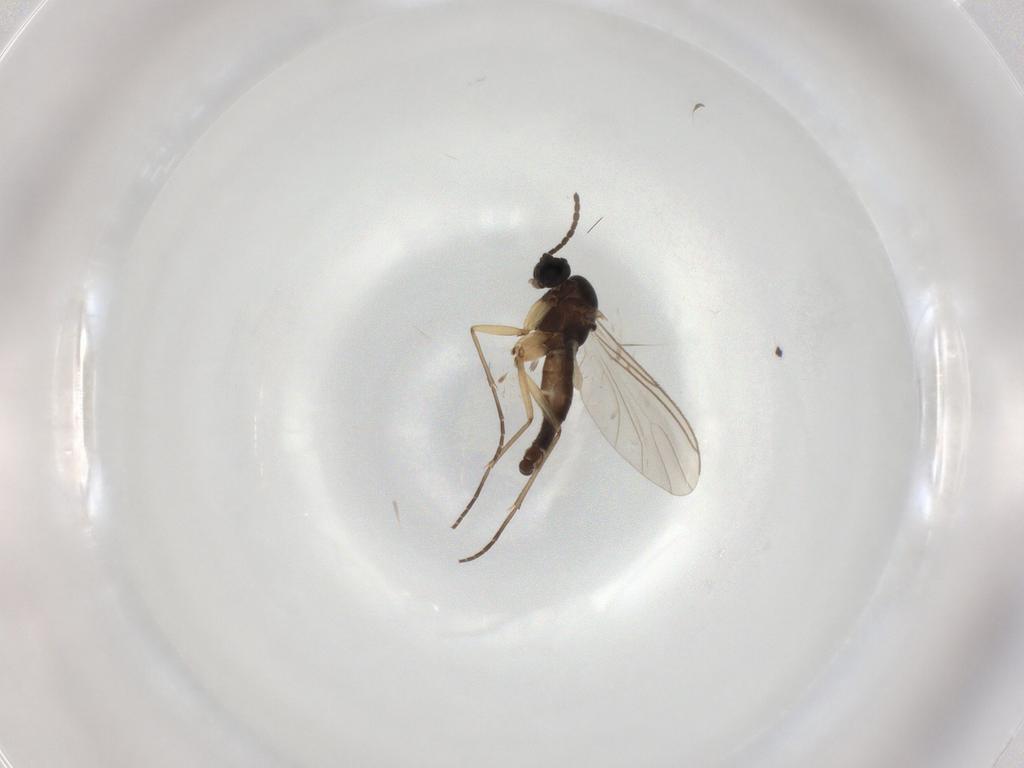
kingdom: Animalia
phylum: Arthropoda
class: Insecta
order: Diptera
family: Sciaridae
